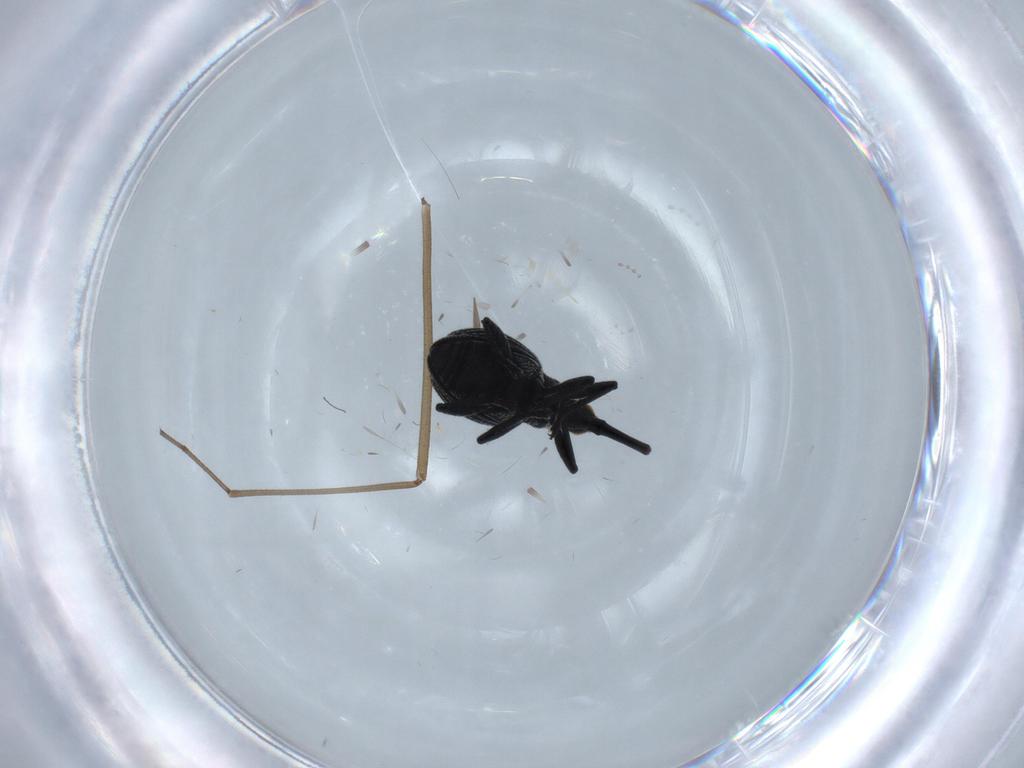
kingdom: Animalia
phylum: Arthropoda
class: Insecta
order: Coleoptera
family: Brentidae
